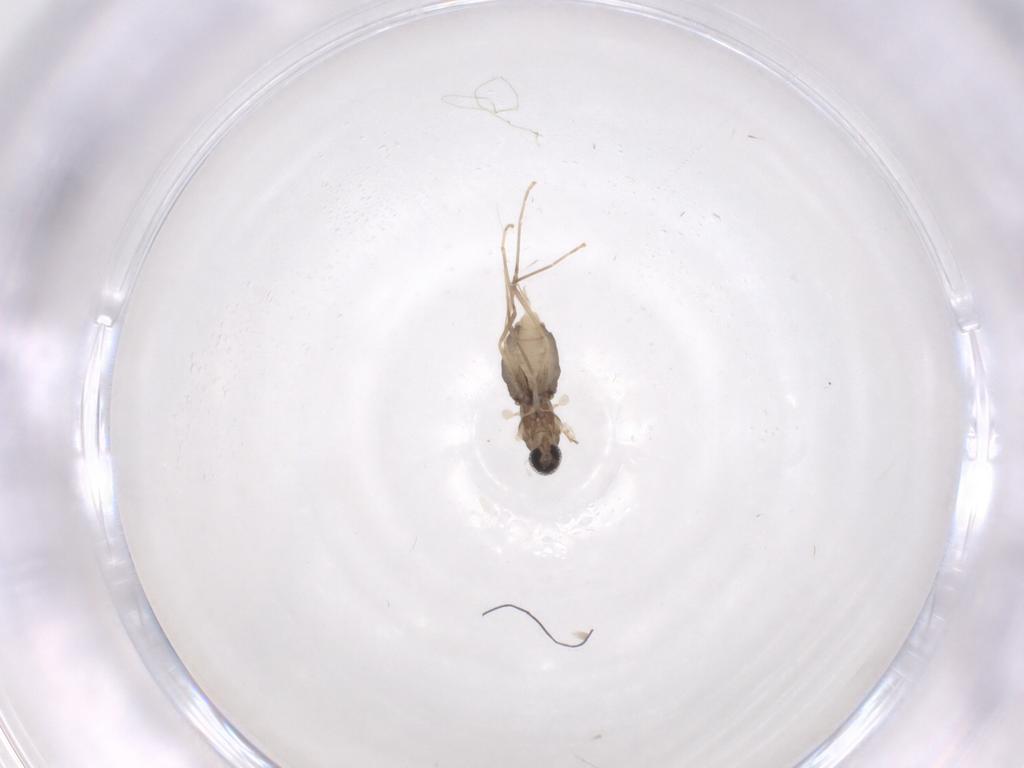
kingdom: Animalia
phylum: Arthropoda
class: Insecta
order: Diptera
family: Cecidomyiidae
